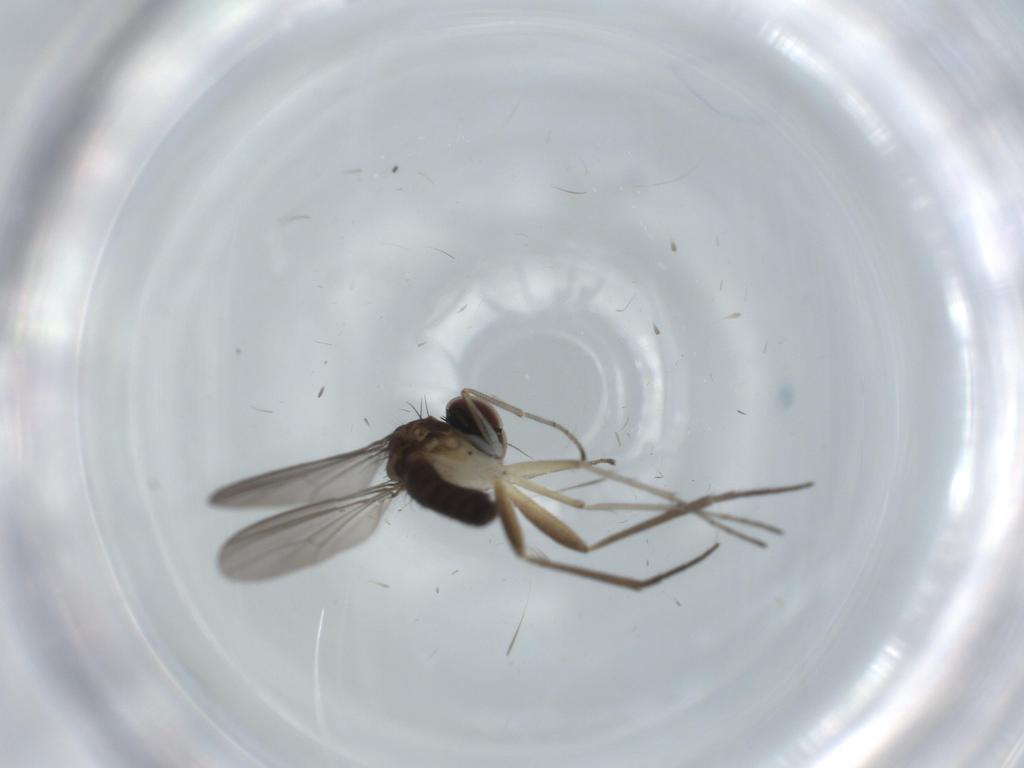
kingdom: Animalia
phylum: Arthropoda
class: Insecta
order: Diptera
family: Dolichopodidae
